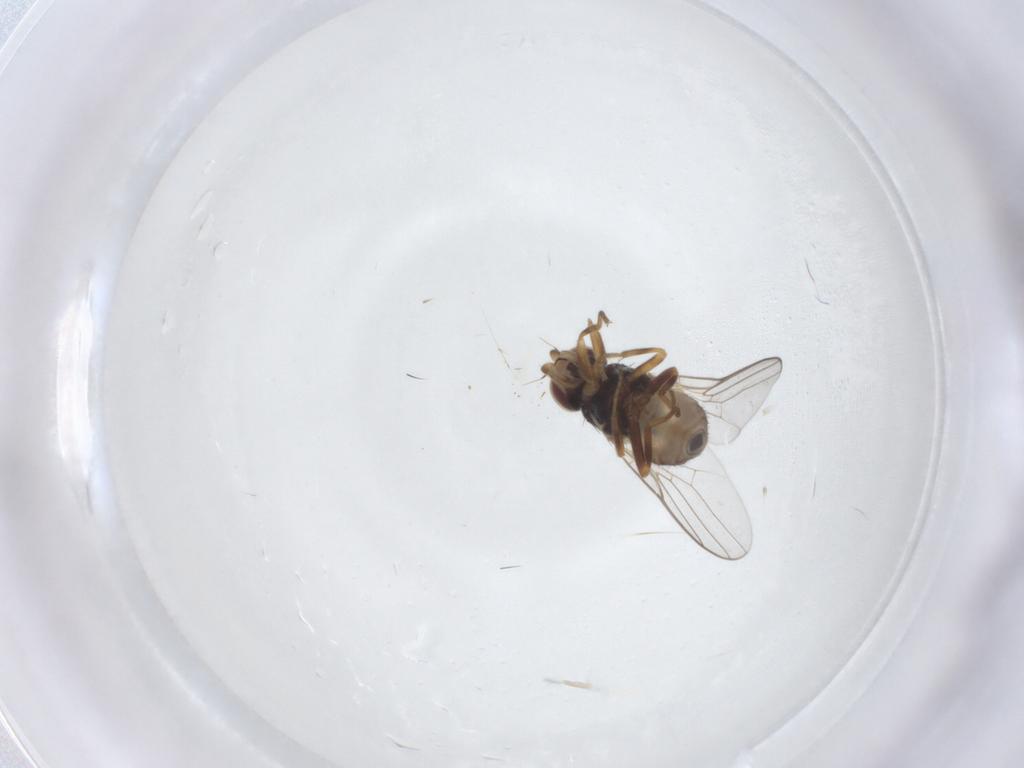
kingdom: Animalia
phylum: Arthropoda
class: Insecta
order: Diptera
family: Chloropidae
